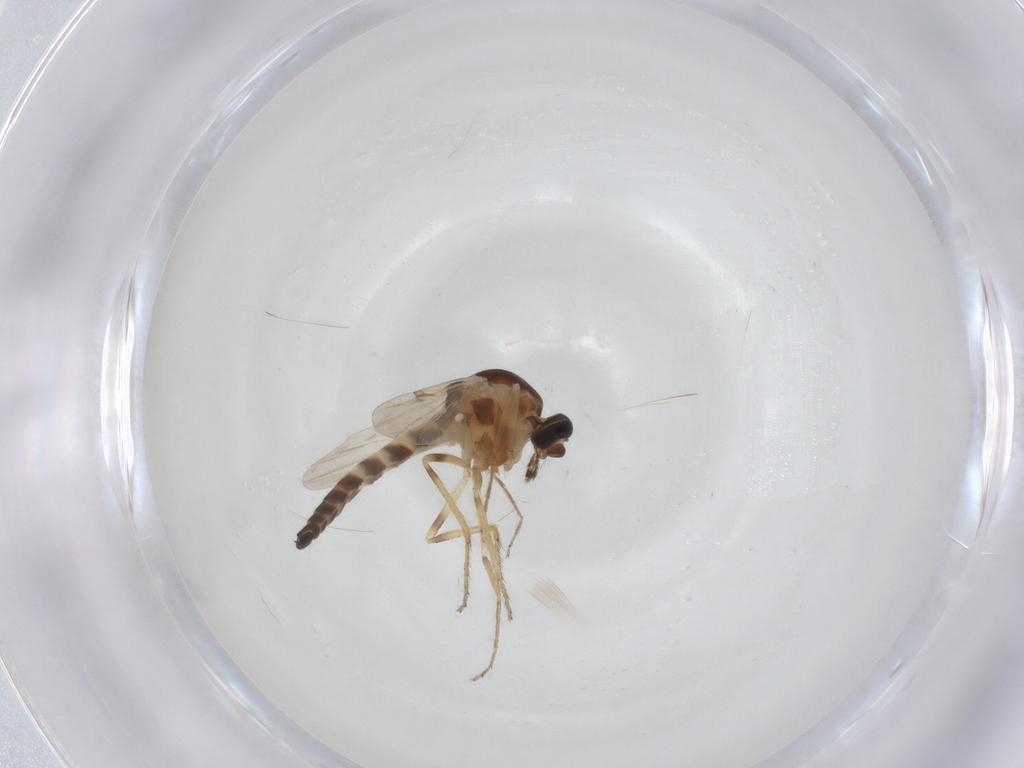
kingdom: Animalia
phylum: Arthropoda
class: Insecta
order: Diptera
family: Ceratopogonidae
